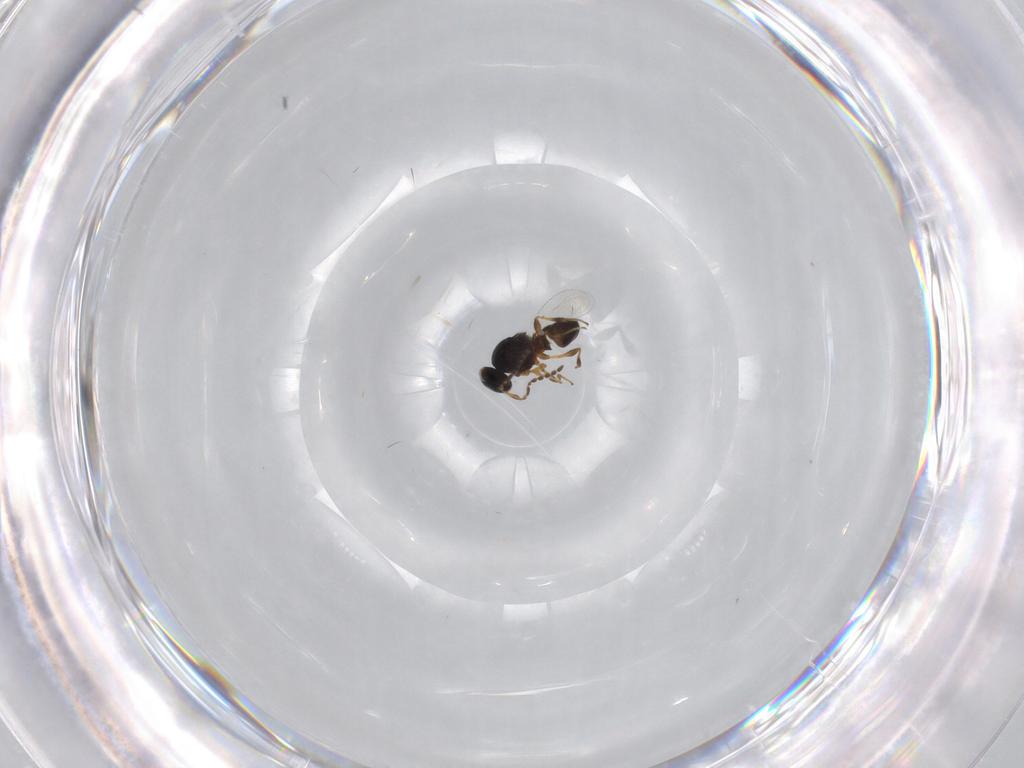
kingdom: Animalia
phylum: Arthropoda
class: Insecta
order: Hymenoptera
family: Platygastridae
